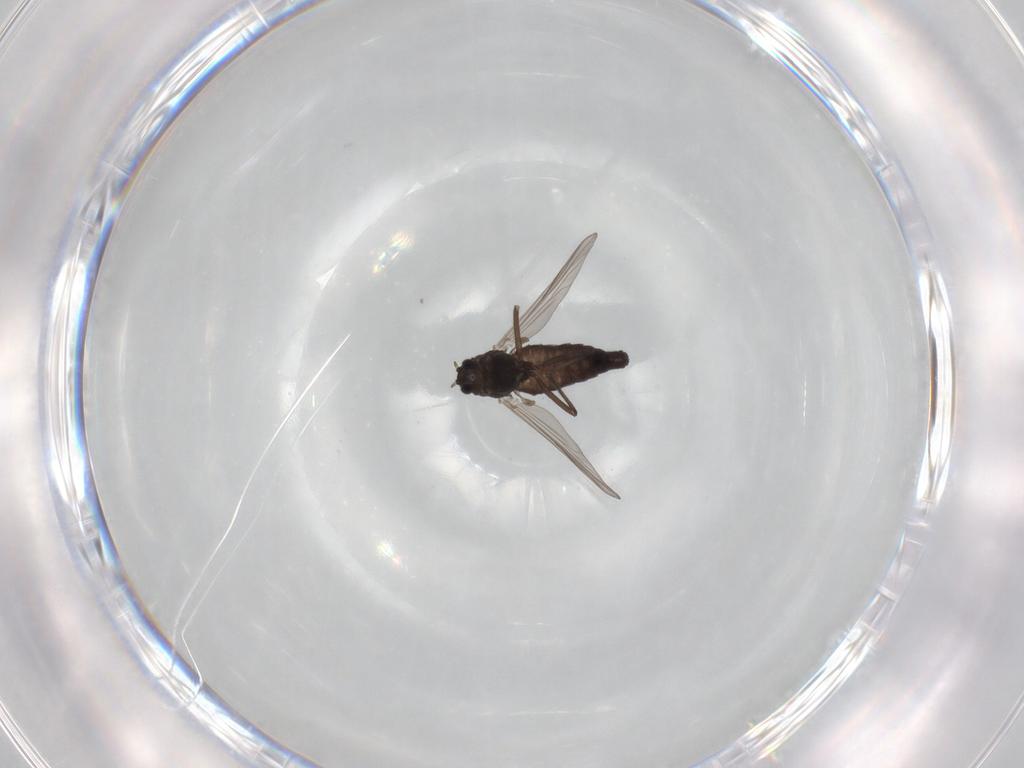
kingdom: Animalia
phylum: Arthropoda
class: Insecta
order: Diptera
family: Chironomidae
